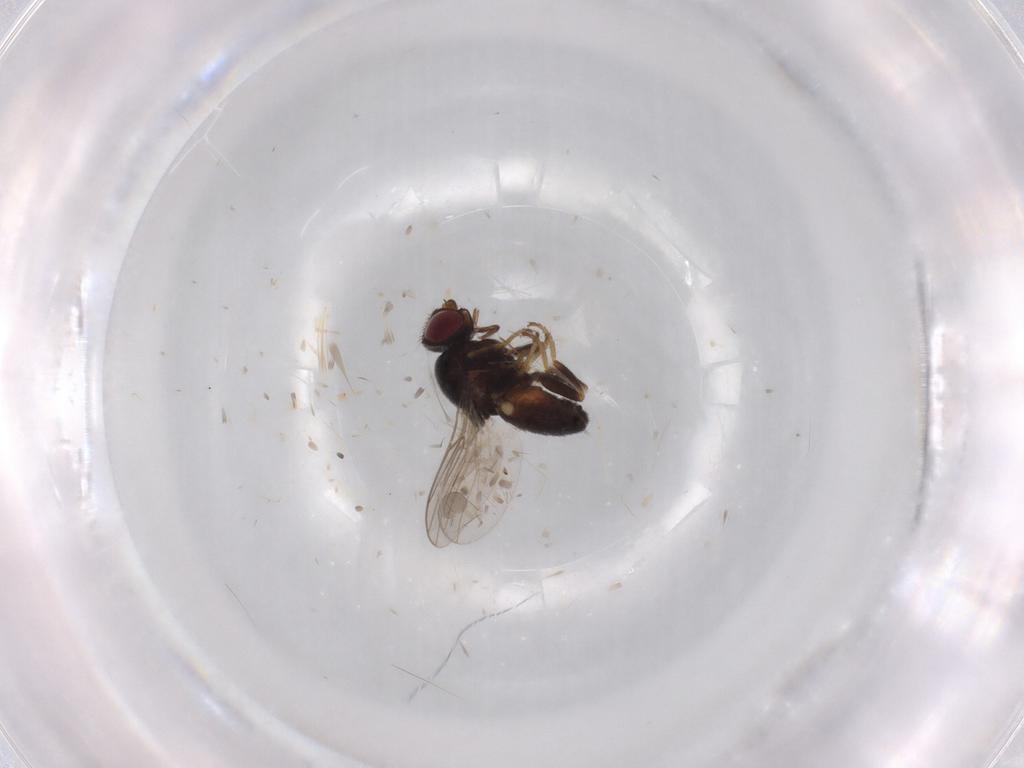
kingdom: Animalia
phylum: Arthropoda
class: Insecta
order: Diptera
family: Chloropidae
